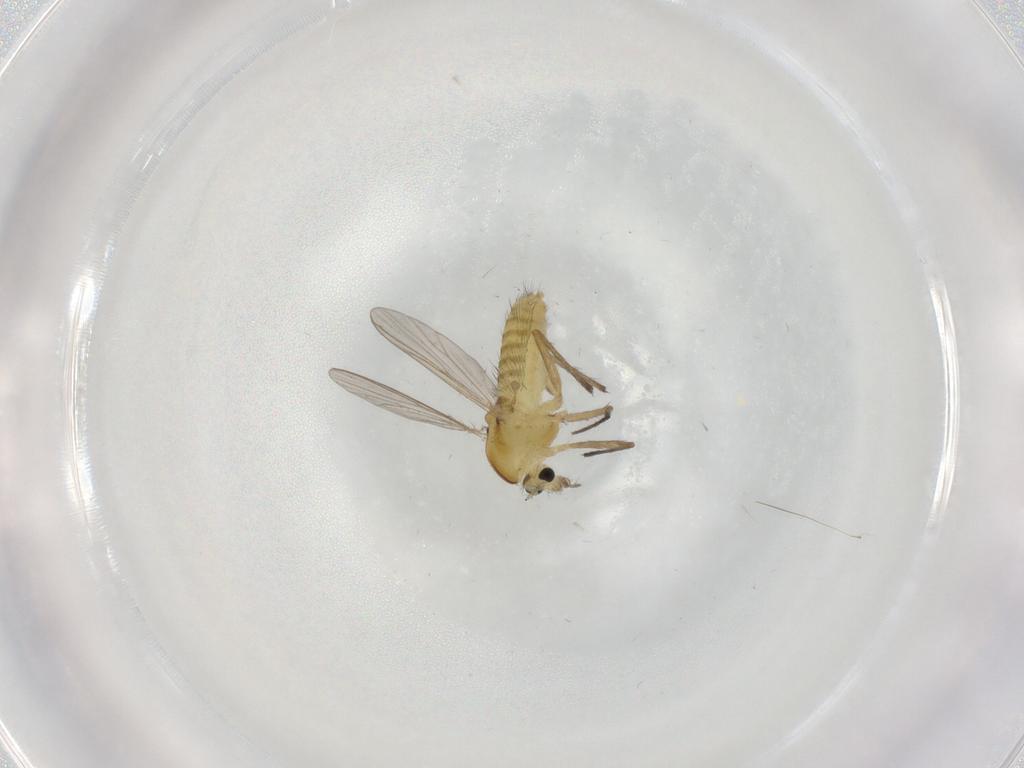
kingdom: Animalia
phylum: Arthropoda
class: Insecta
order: Diptera
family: Chironomidae
